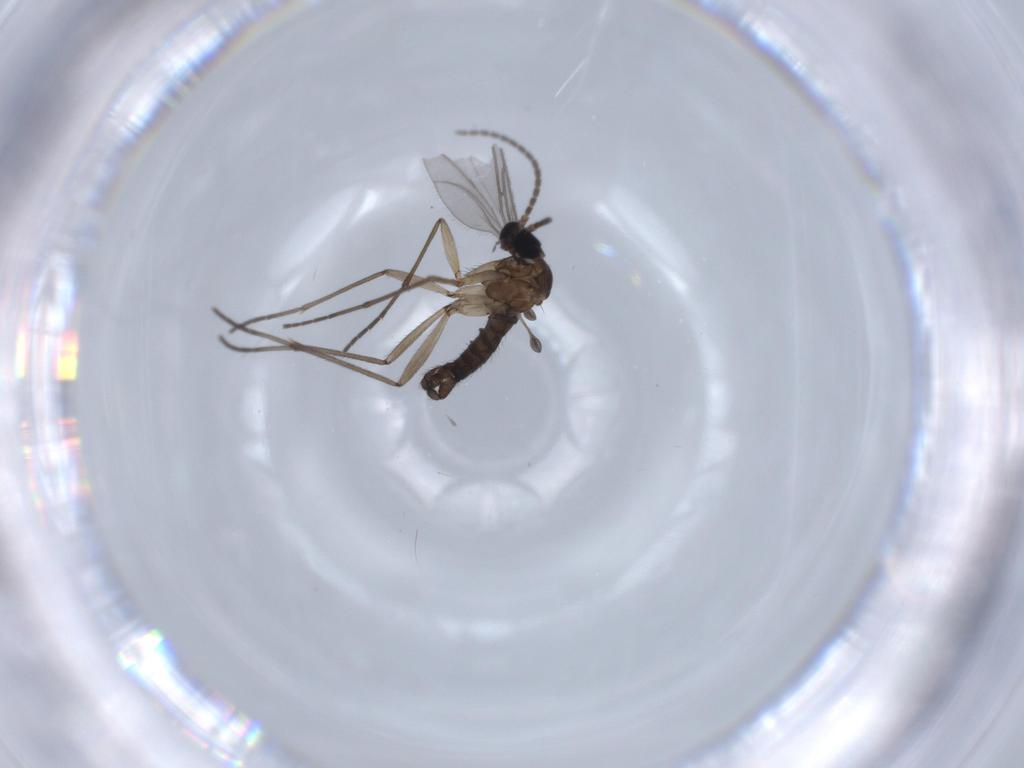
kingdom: Animalia
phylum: Arthropoda
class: Insecta
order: Diptera
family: Sciaridae
